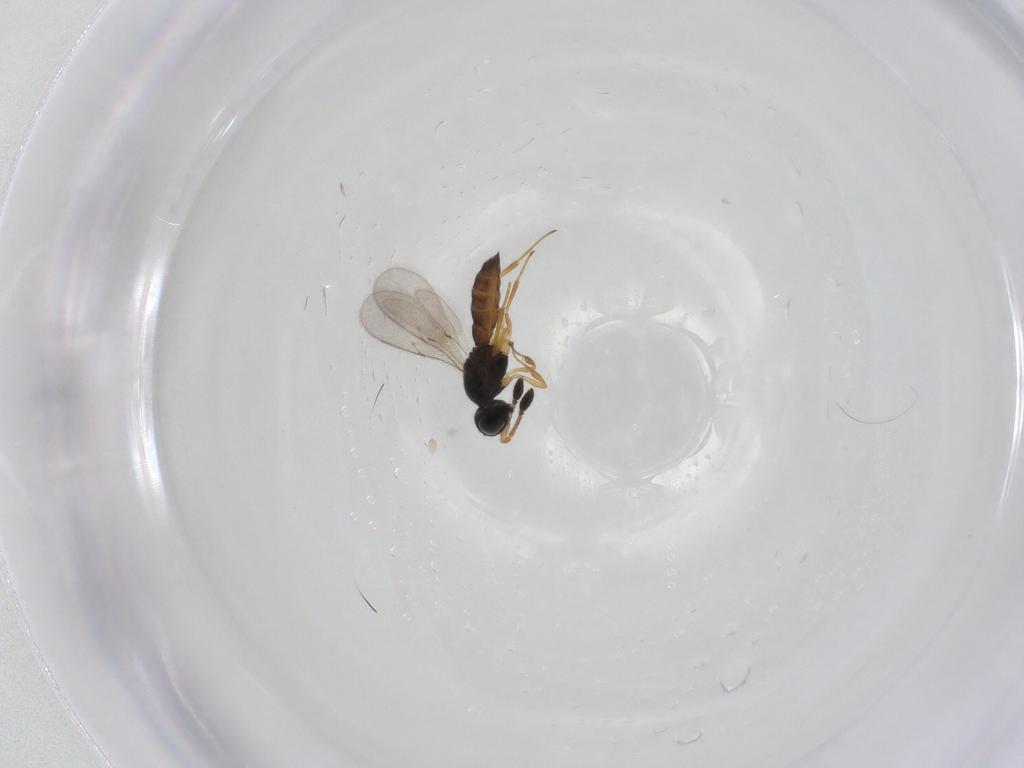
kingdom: Animalia
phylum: Arthropoda
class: Insecta
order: Hymenoptera
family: Scelionidae
